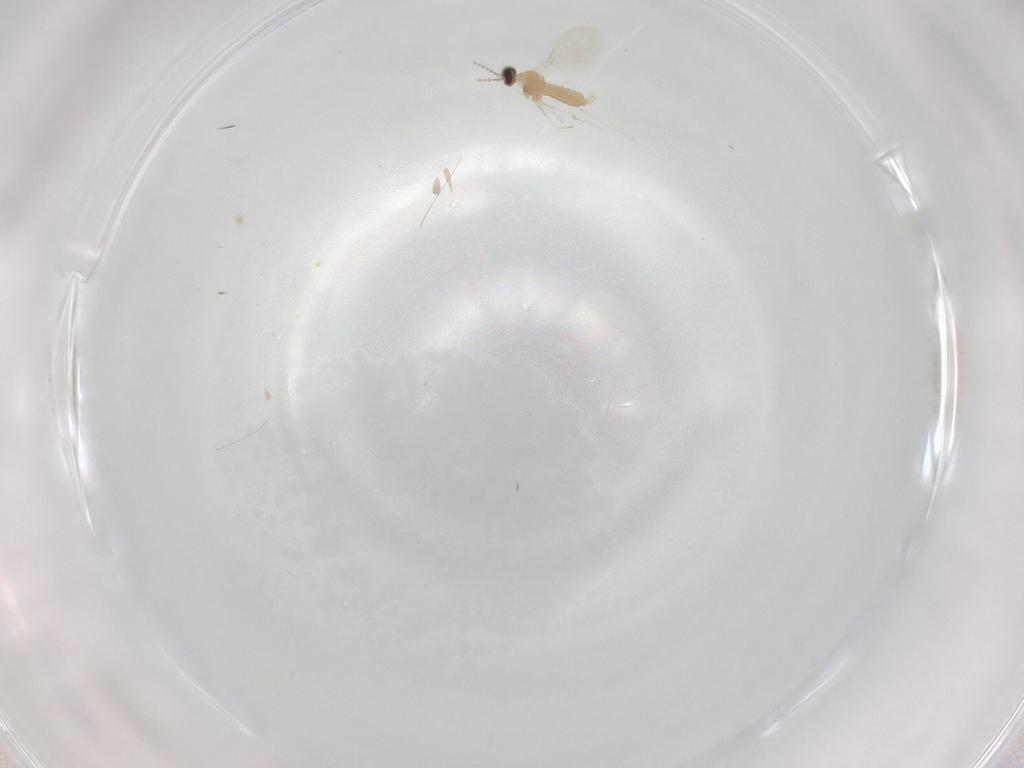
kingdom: Animalia
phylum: Arthropoda
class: Insecta
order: Diptera
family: Cecidomyiidae
